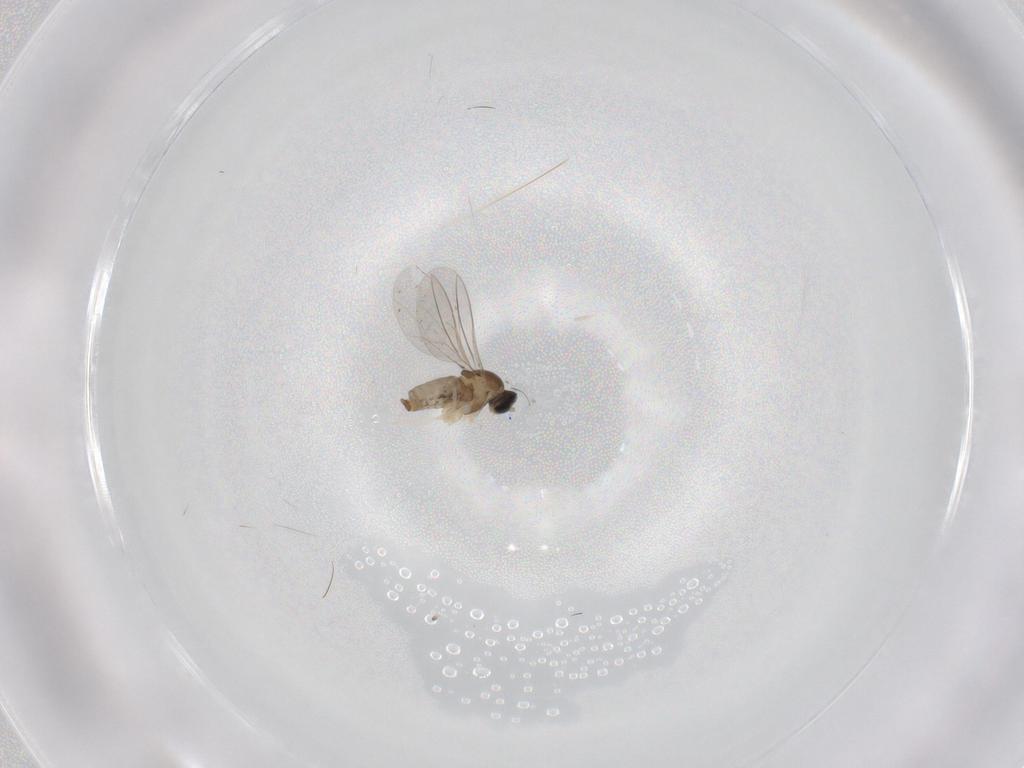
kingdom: Animalia
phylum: Arthropoda
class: Insecta
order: Diptera
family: Cecidomyiidae
